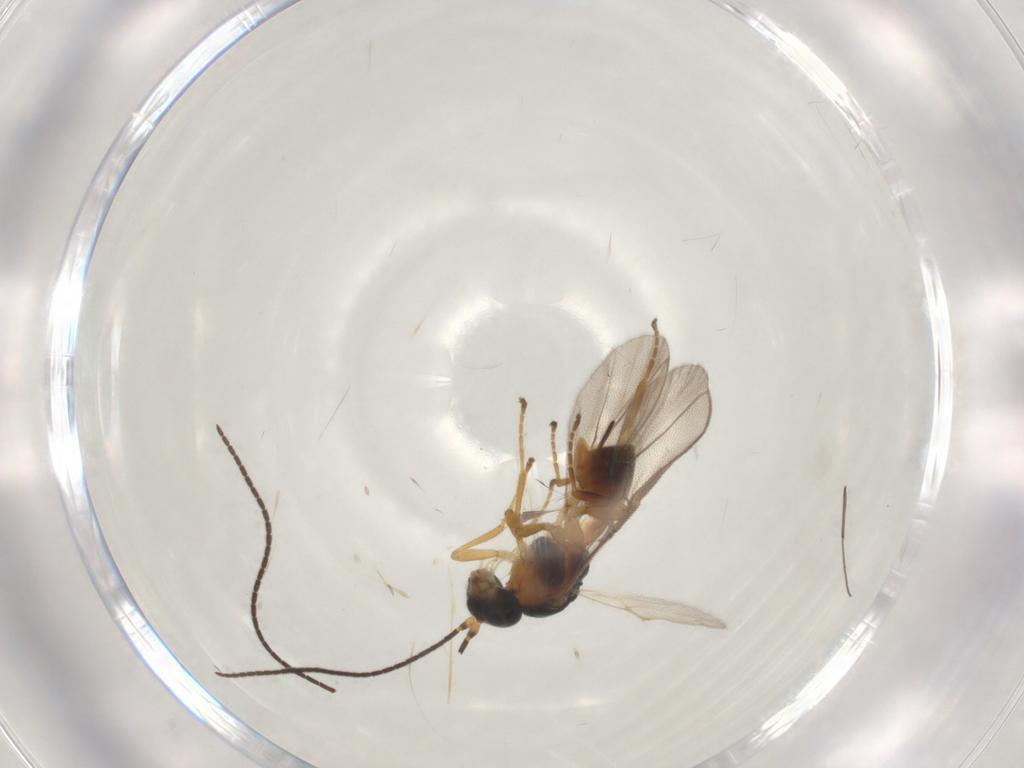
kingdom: Animalia
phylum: Arthropoda
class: Insecta
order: Hymenoptera
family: Braconidae
